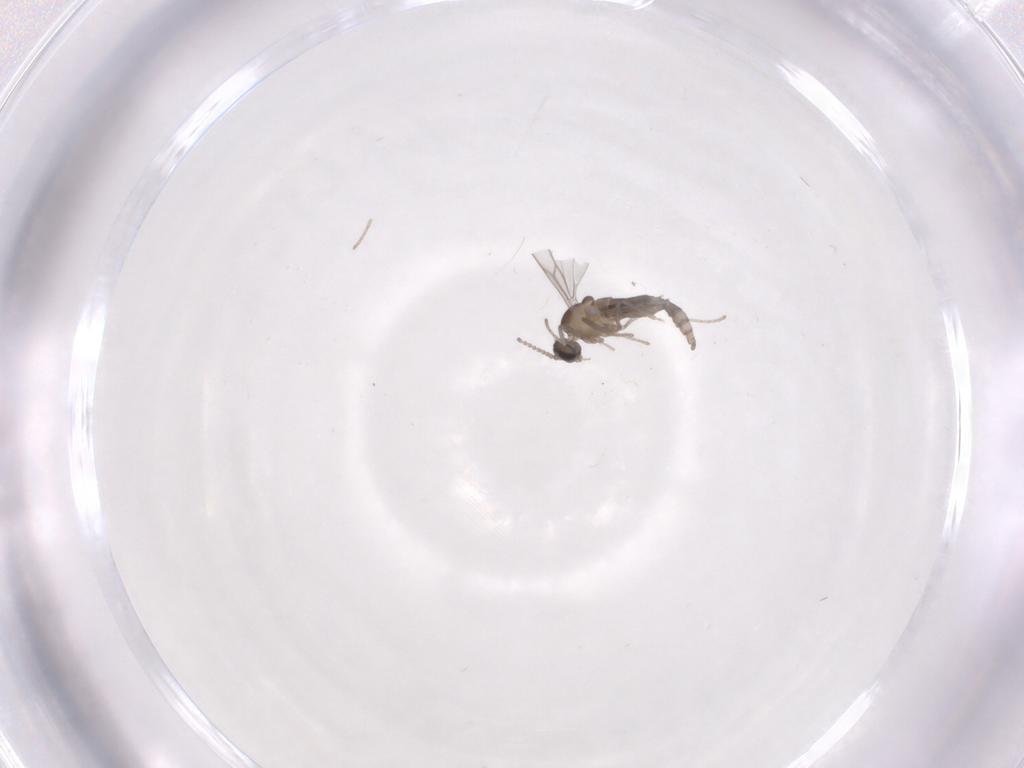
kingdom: Animalia
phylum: Arthropoda
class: Insecta
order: Diptera
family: Cecidomyiidae
